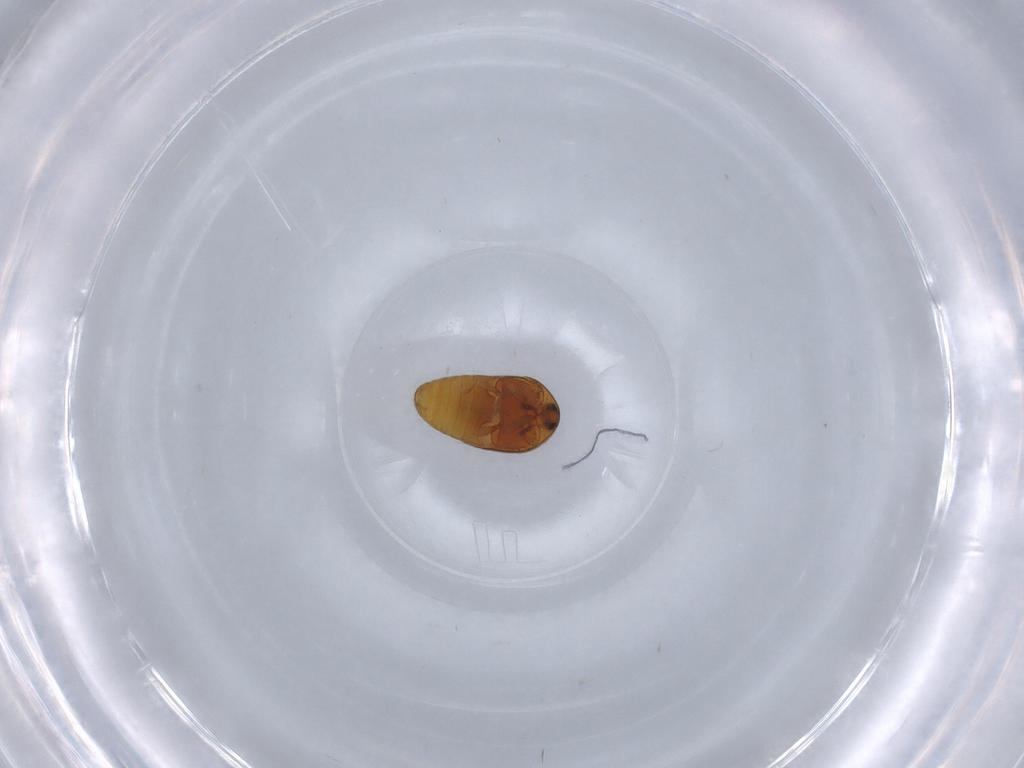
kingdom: Animalia
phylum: Arthropoda
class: Insecta
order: Coleoptera
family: Corylophidae
